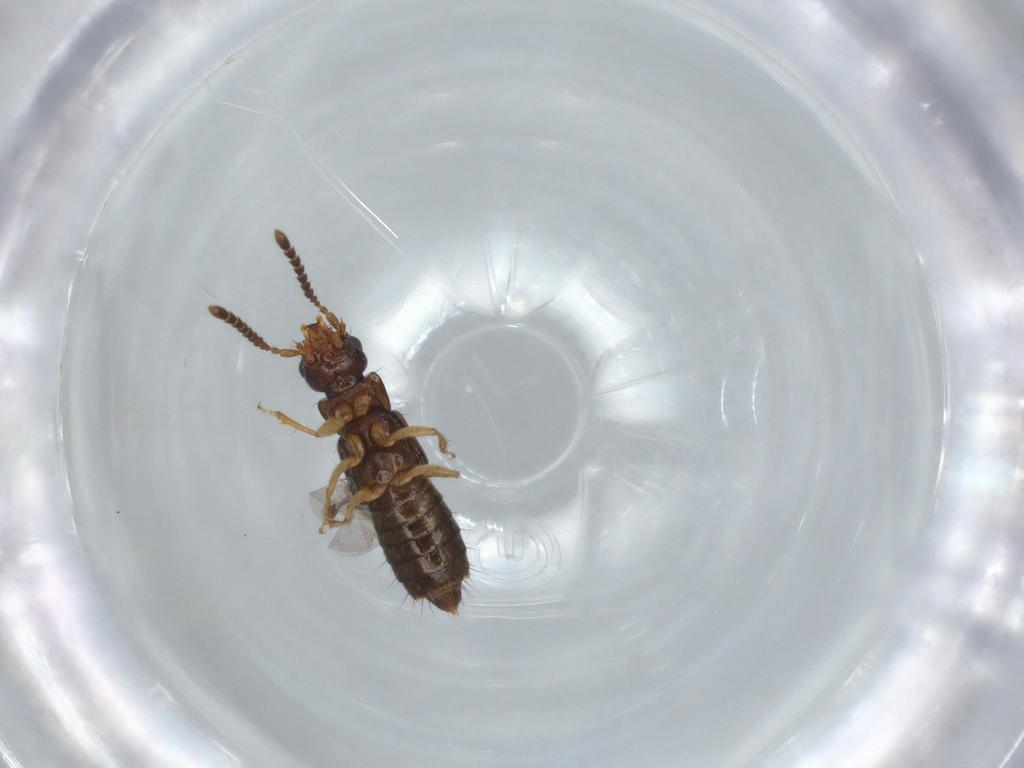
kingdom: Animalia
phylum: Arthropoda
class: Insecta
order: Coleoptera
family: Staphylinidae
